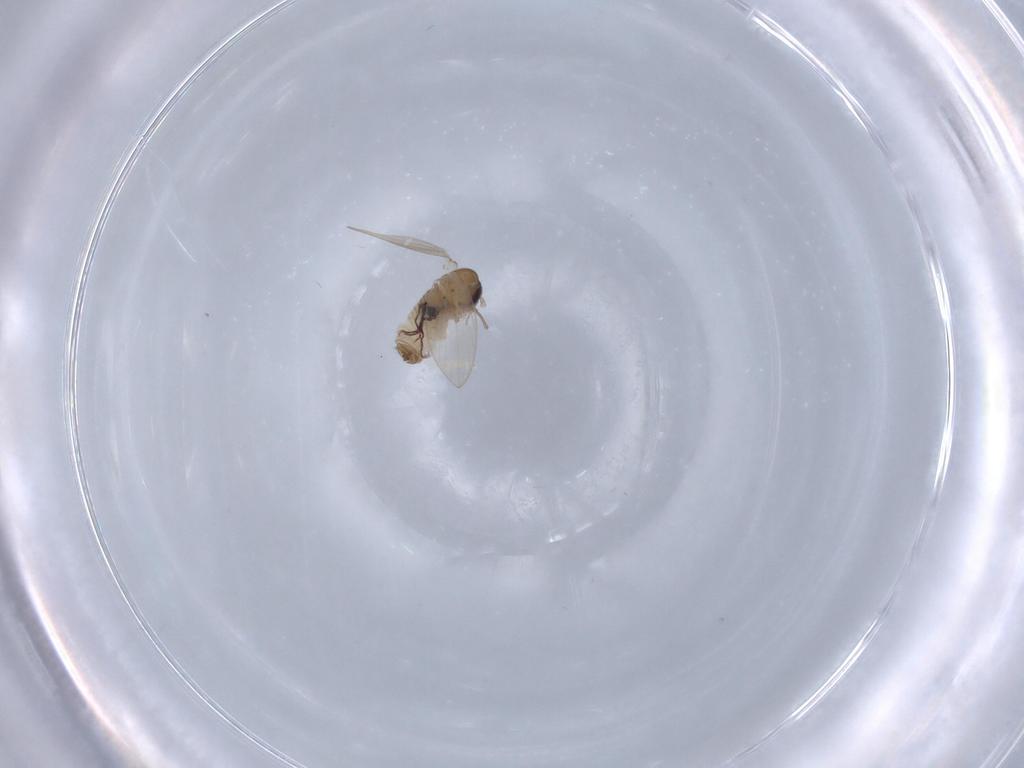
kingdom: Animalia
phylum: Arthropoda
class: Insecta
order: Diptera
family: Psychodidae
